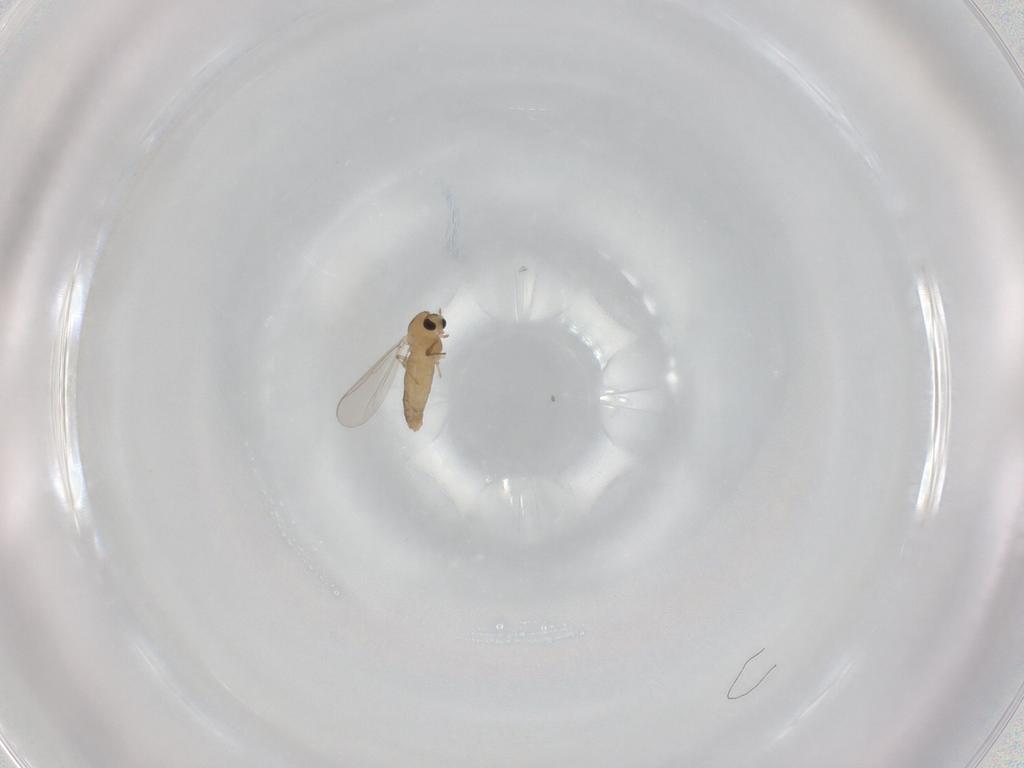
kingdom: Animalia
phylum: Arthropoda
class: Insecta
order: Diptera
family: Chironomidae
